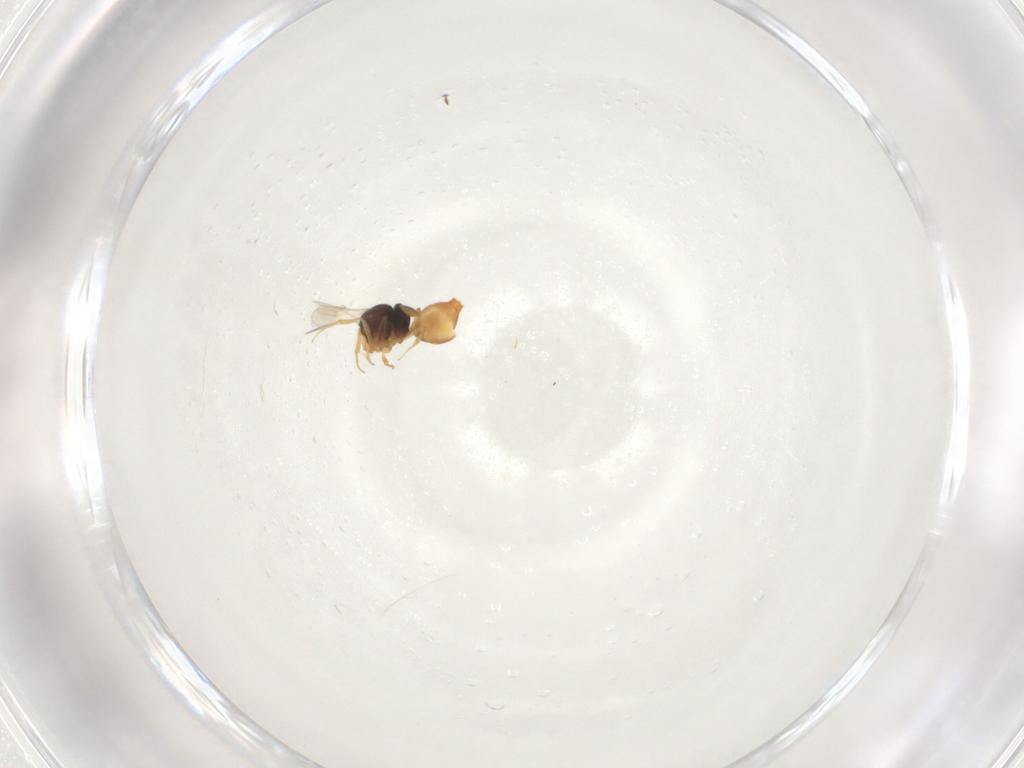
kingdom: Animalia
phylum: Arthropoda
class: Insecta
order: Hymenoptera
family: Scelionidae
